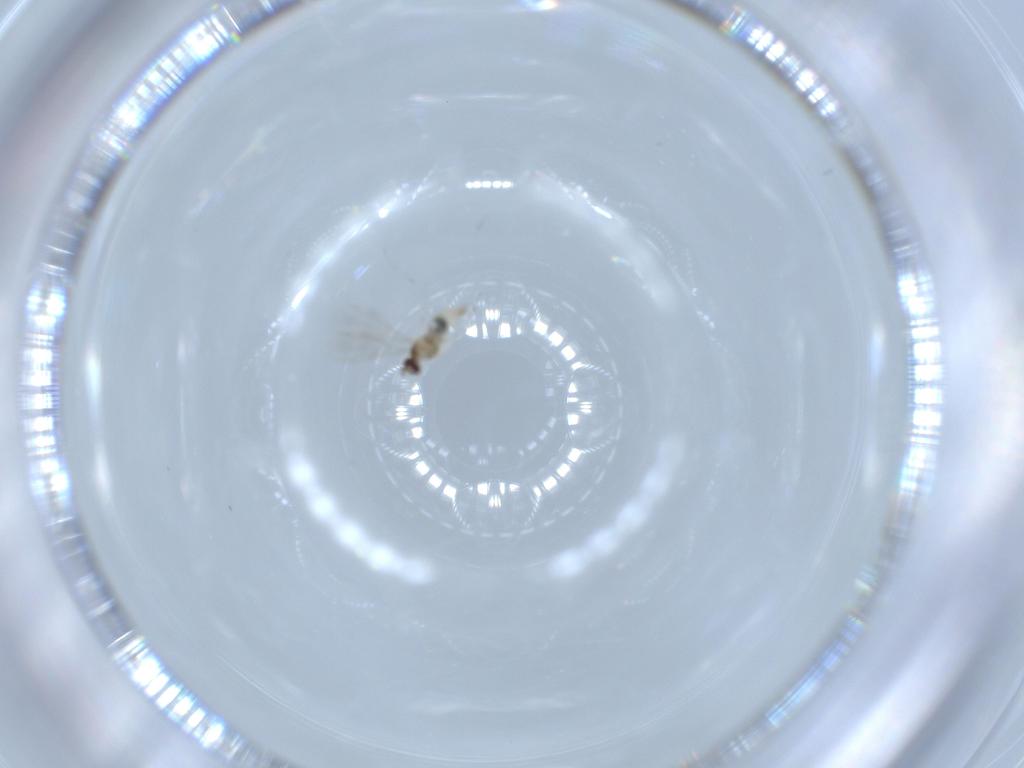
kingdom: Animalia
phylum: Arthropoda
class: Insecta
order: Diptera
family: Cecidomyiidae
